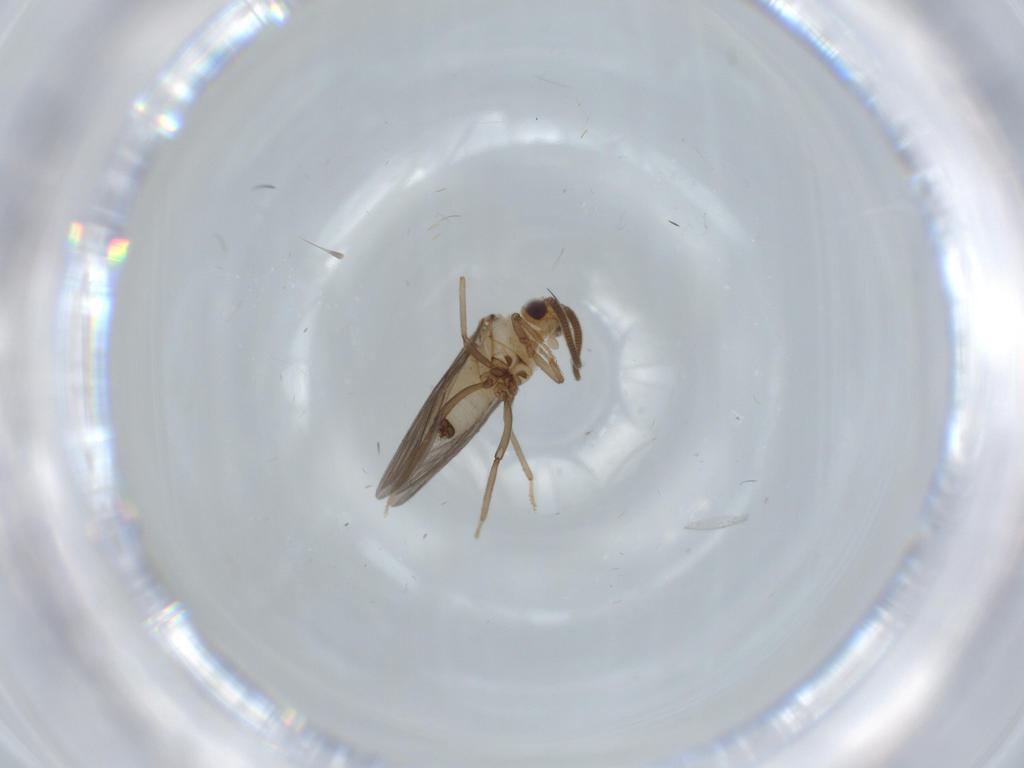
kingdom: Animalia
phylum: Arthropoda
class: Insecta
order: Neuroptera
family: Coniopterygidae
